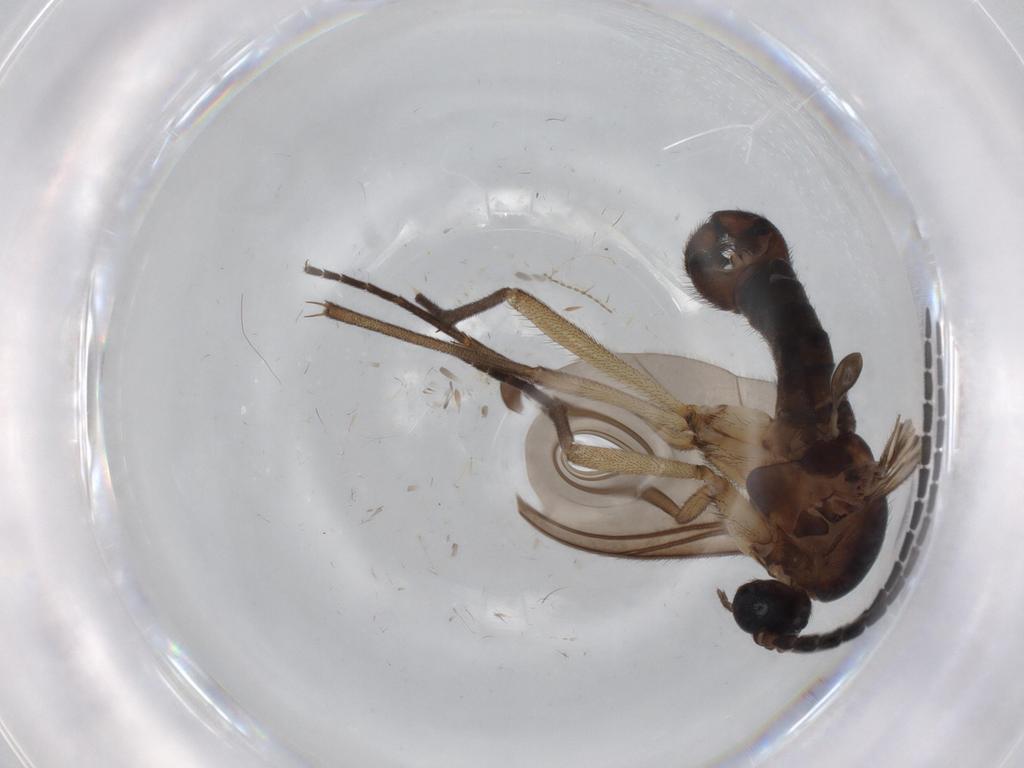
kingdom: Animalia
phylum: Arthropoda
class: Insecta
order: Diptera
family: Sciaridae
